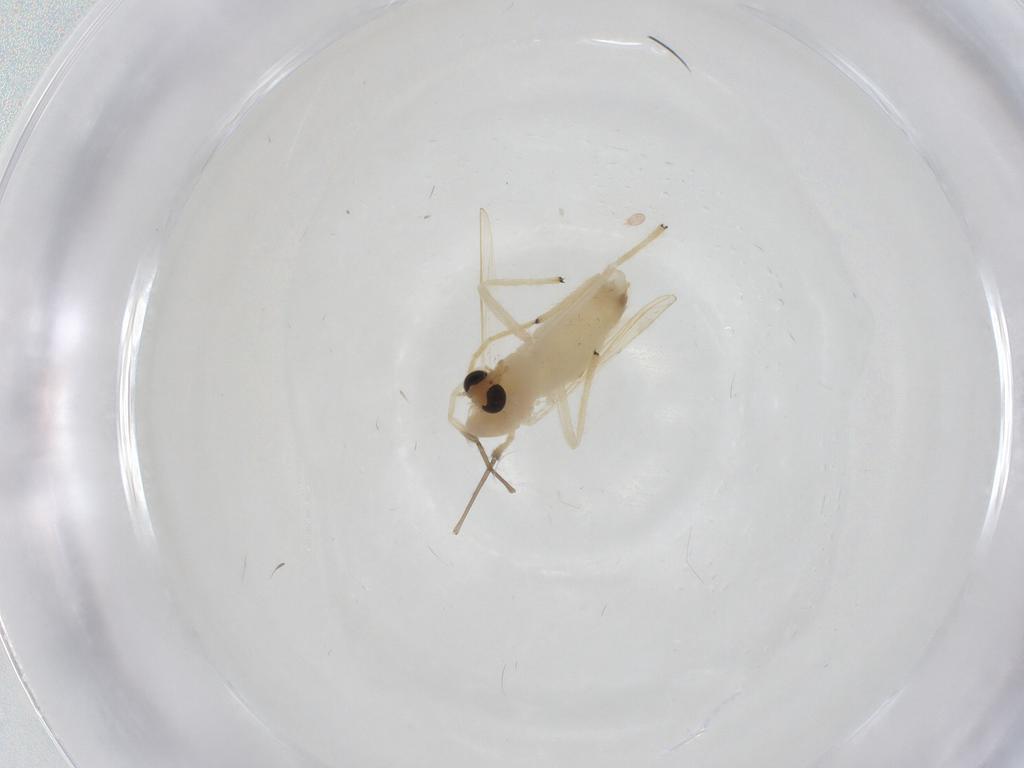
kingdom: Animalia
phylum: Arthropoda
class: Insecta
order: Diptera
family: Chironomidae
